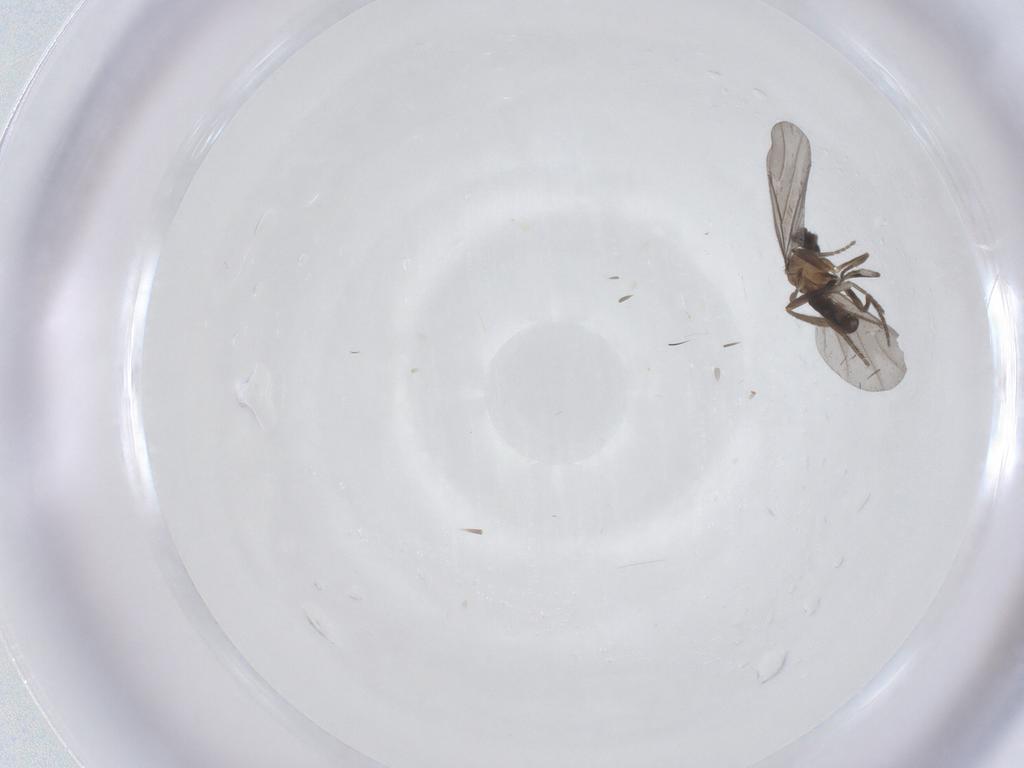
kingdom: Animalia
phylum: Arthropoda
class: Insecta
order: Diptera
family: Phoridae
